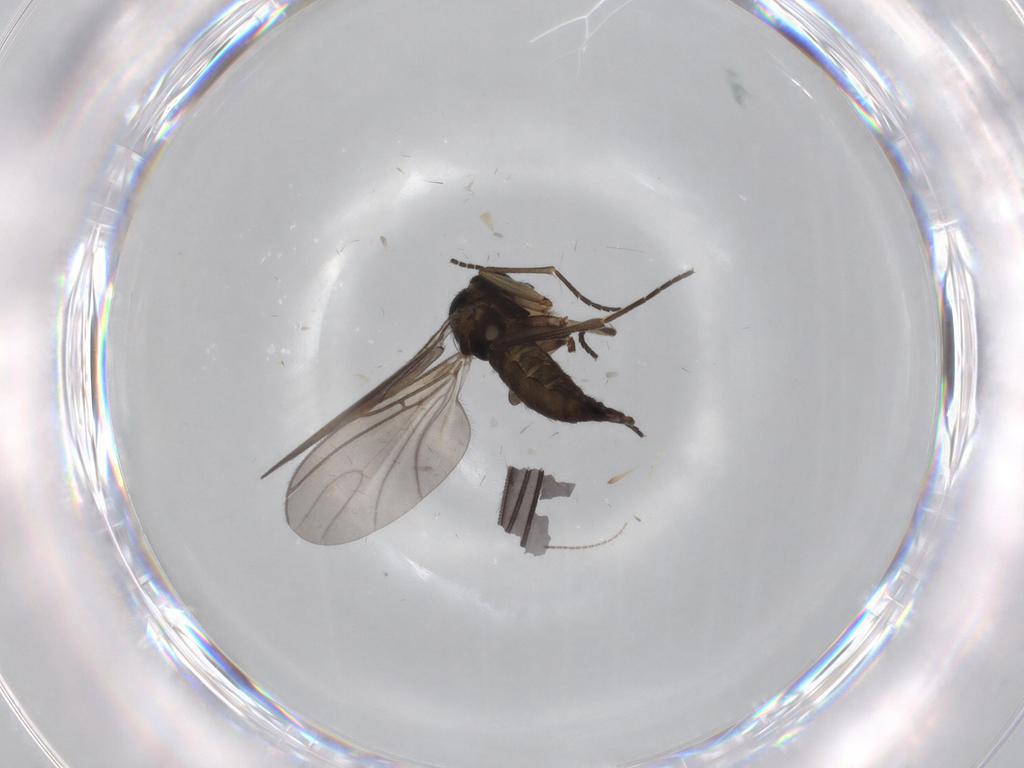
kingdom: Animalia
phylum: Arthropoda
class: Insecta
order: Diptera
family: Sciaridae
